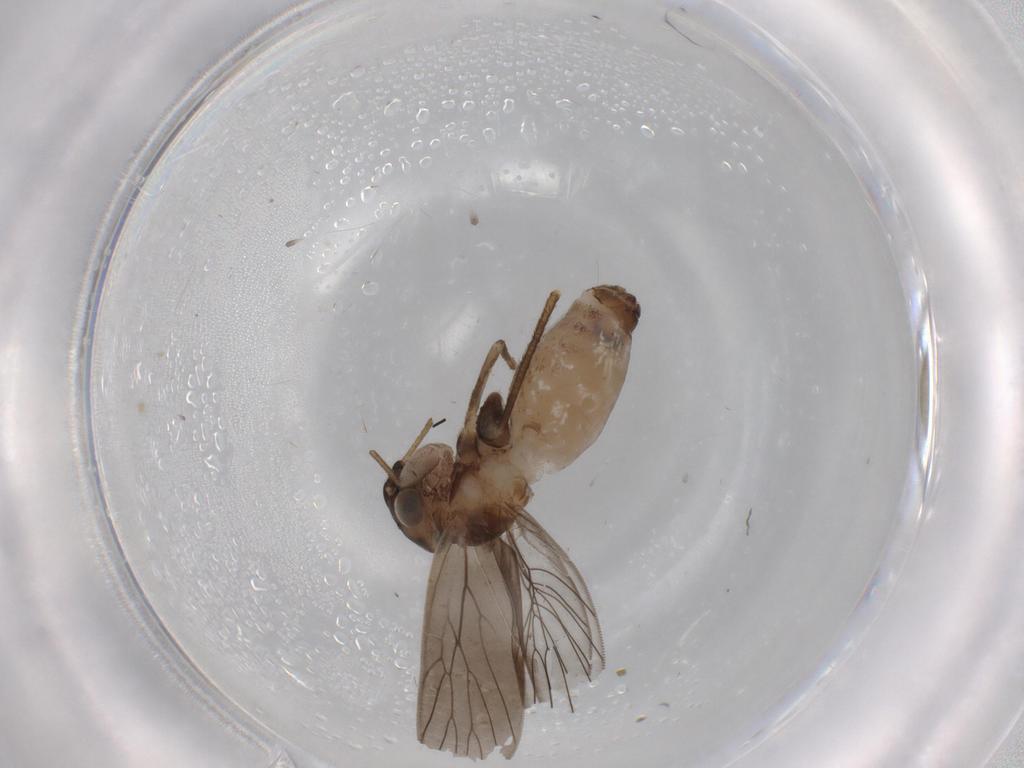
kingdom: Animalia
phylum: Arthropoda
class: Insecta
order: Psocodea
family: Lepidopsocidae
